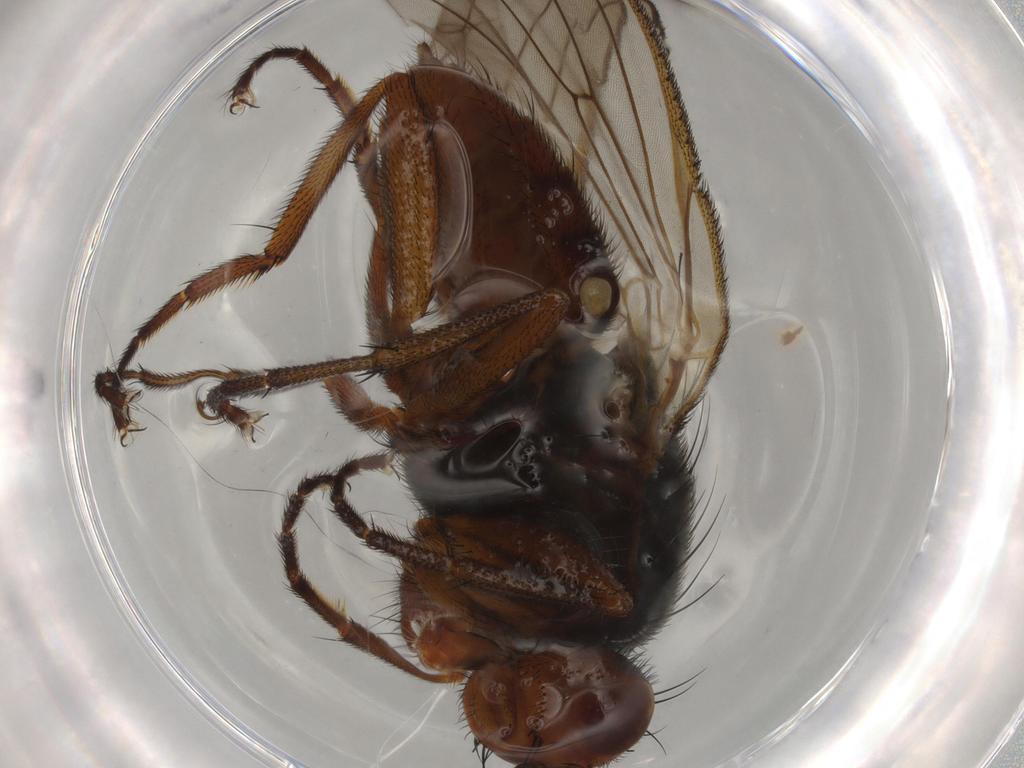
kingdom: Animalia
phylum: Arthropoda
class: Insecta
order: Diptera
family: Heleomyzidae
